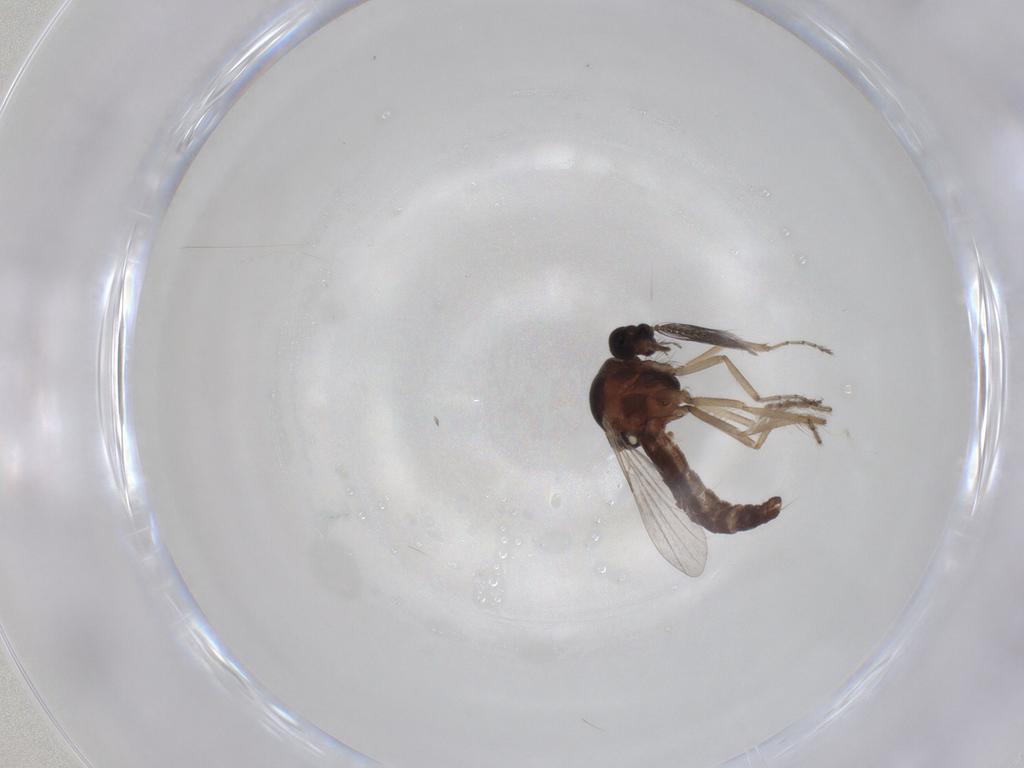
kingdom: Animalia
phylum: Arthropoda
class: Insecta
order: Diptera
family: Ceratopogonidae
